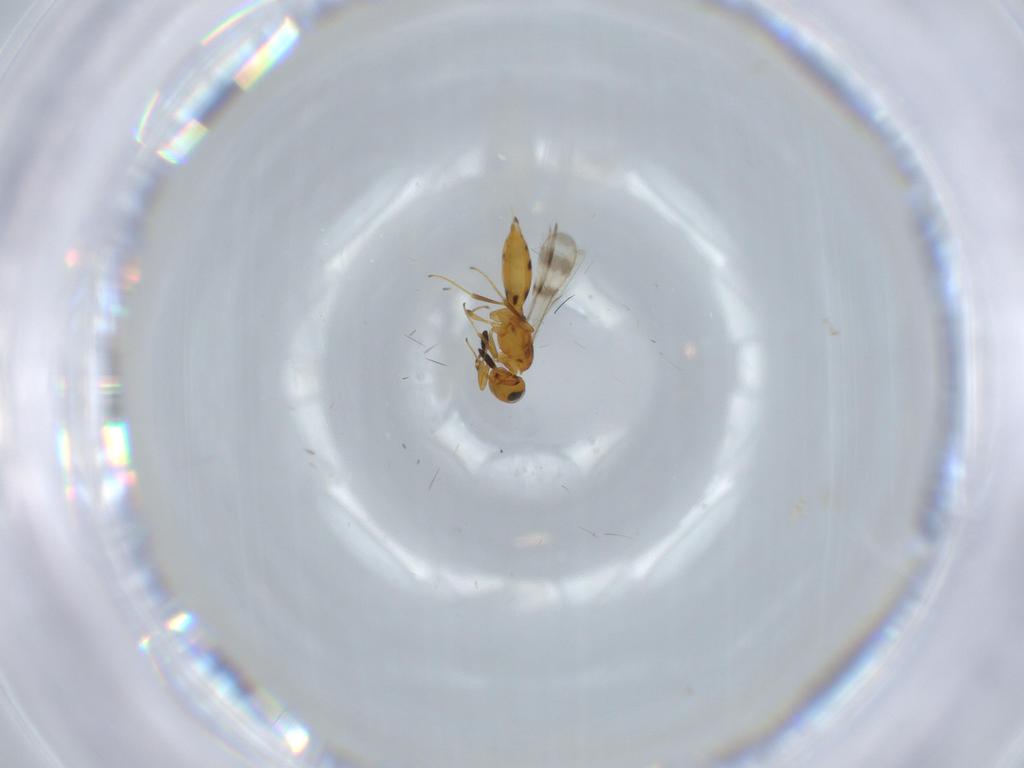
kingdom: Animalia
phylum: Arthropoda
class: Insecta
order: Hymenoptera
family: Scelionidae
